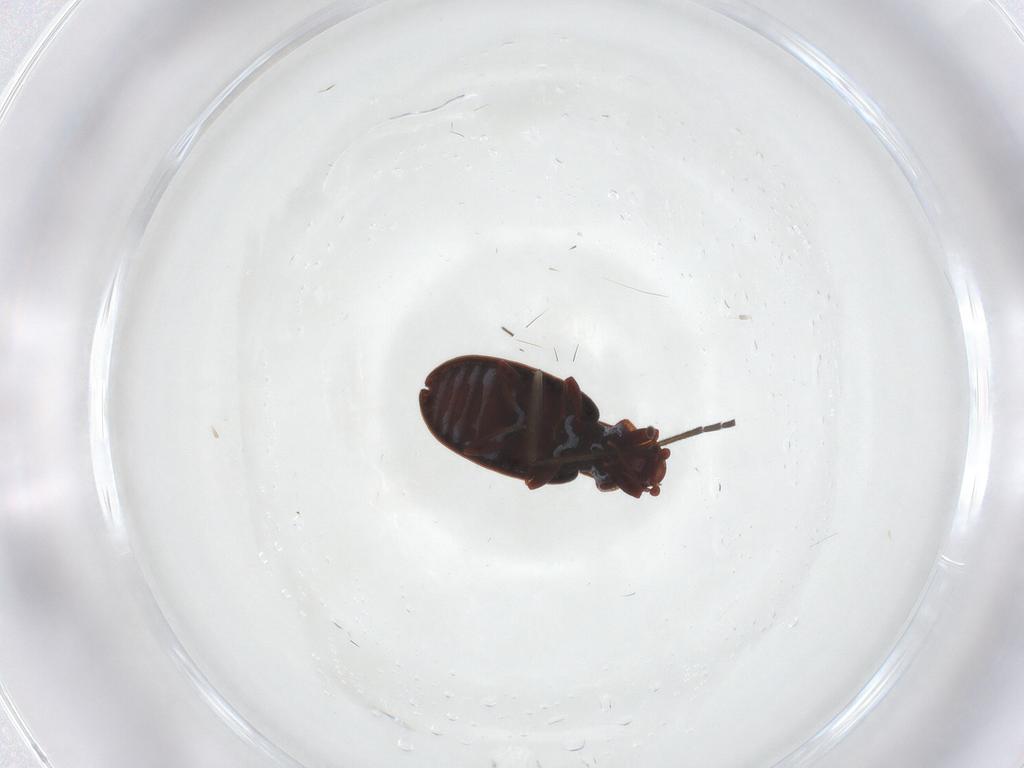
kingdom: Animalia
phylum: Arthropoda
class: Insecta
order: Coleoptera
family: Latridiidae
